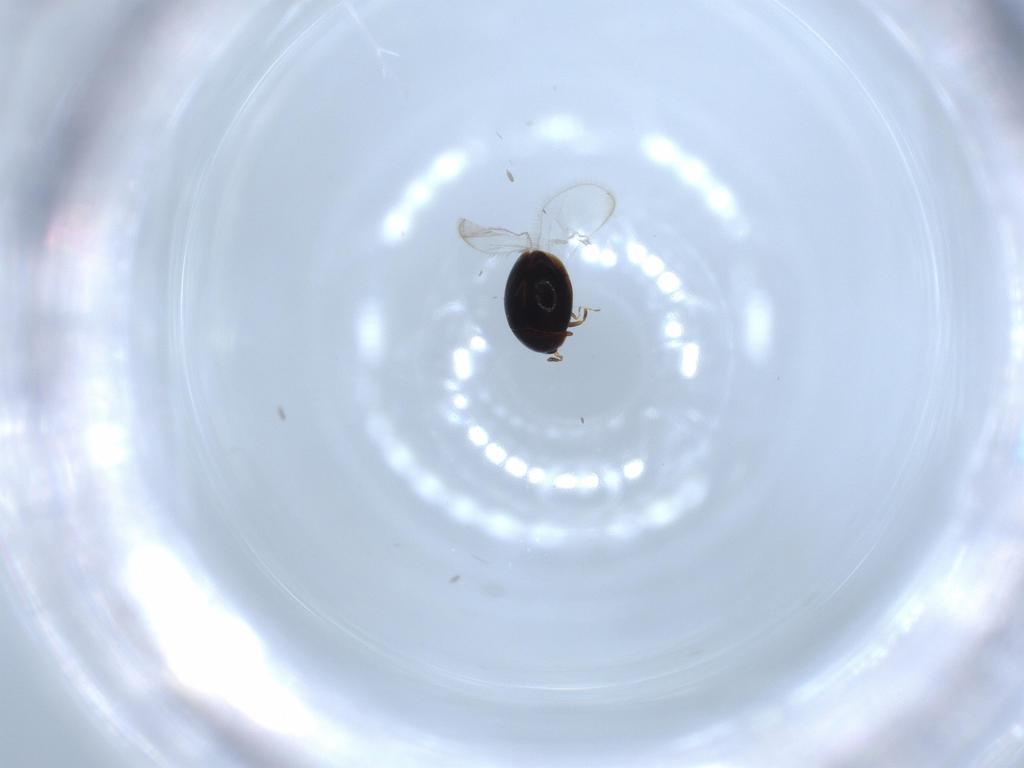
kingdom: Animalia
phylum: Arthropoda
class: Insecta
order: Coleoptera
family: Corylophidae
